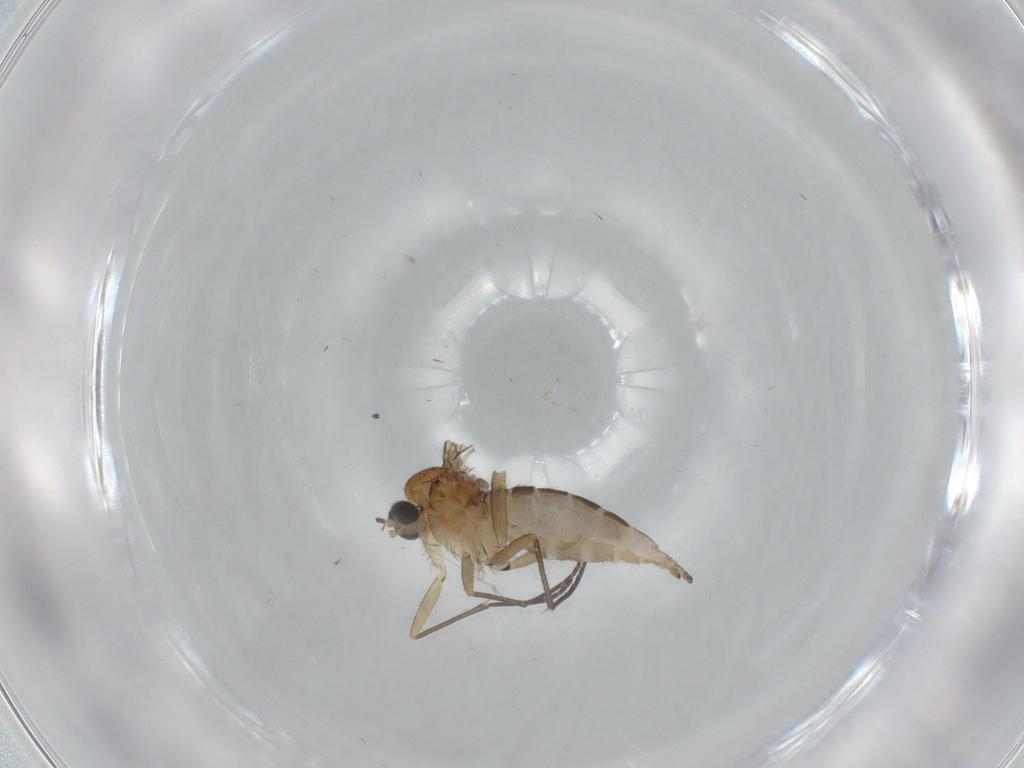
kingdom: Animalia
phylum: Arthropoda
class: Insecta
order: Diptera
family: Sciaridae
